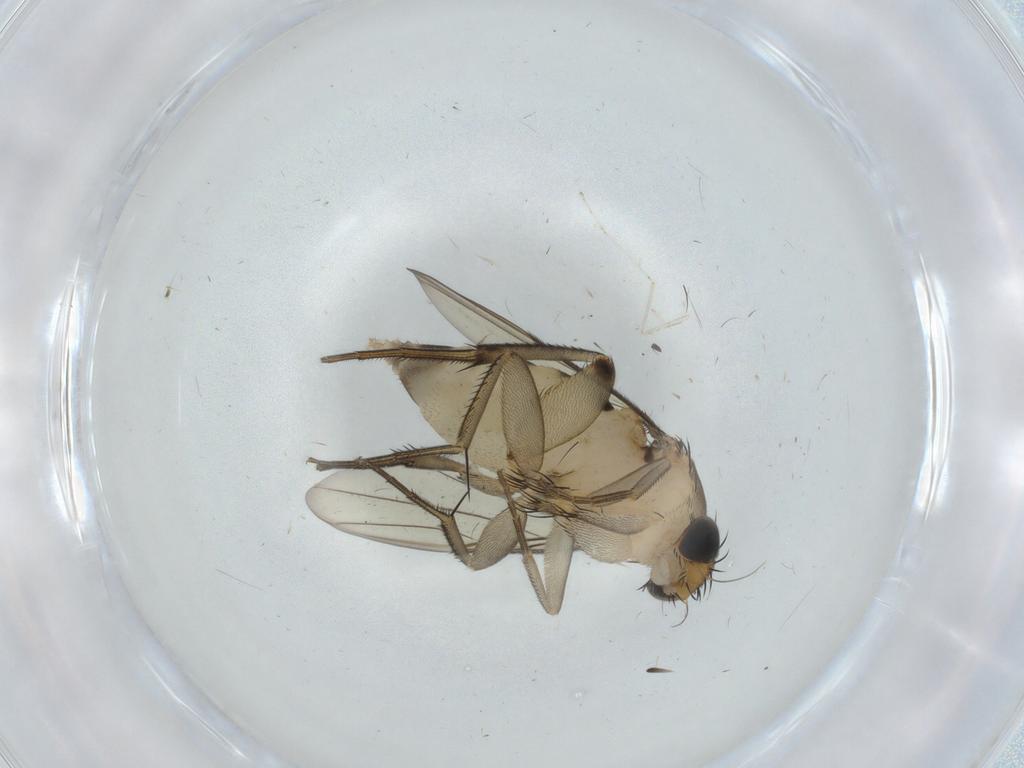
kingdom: Animalia
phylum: Arthropoda
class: Insecta
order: Diptera
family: Phoridae
